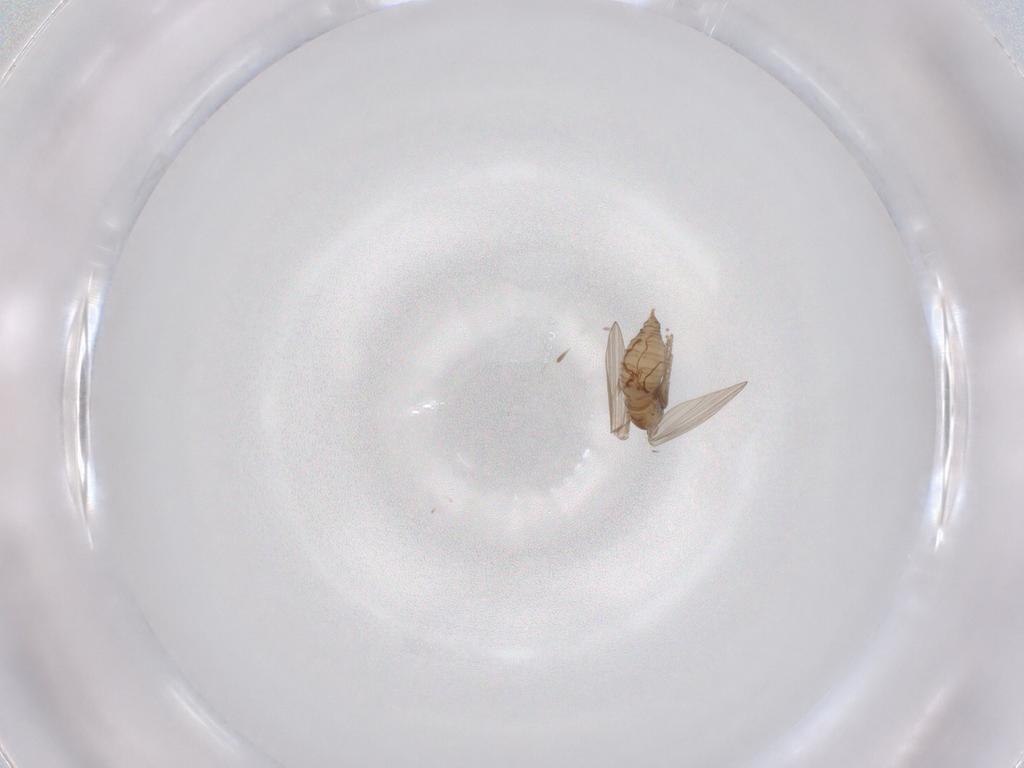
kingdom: Animalia
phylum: Arthropoda
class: Insecta
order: Diptera
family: Psychodidae
